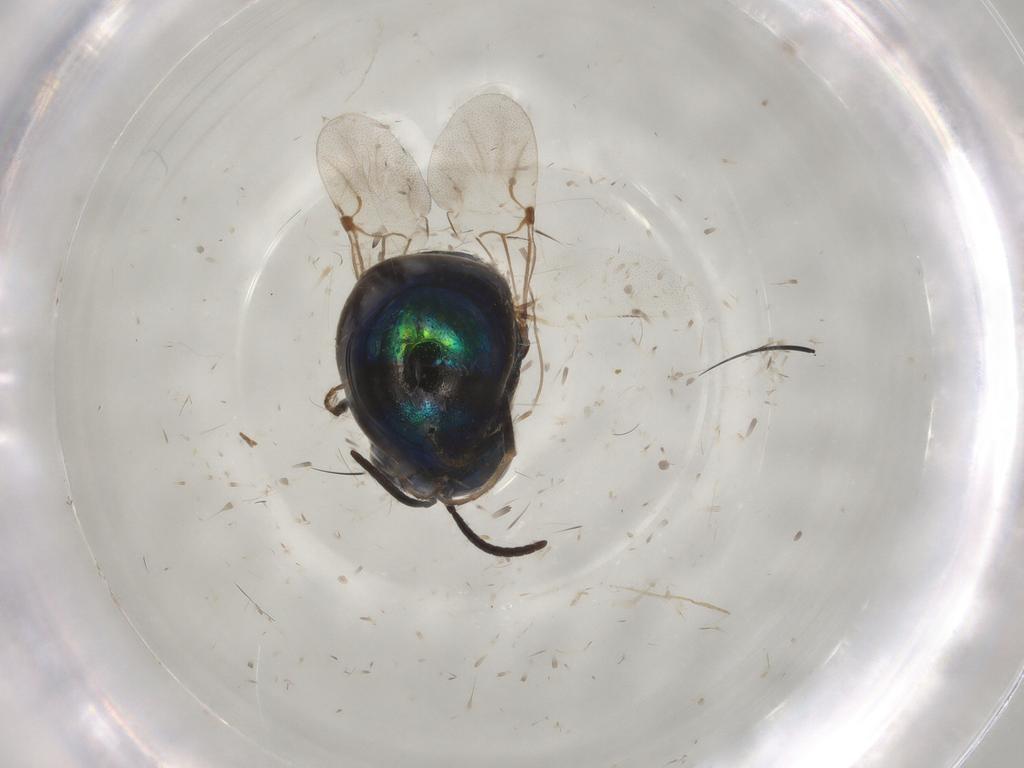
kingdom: Animalia
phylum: Arthropoda
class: Insecta
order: Hymenoptera
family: Chrysididae
